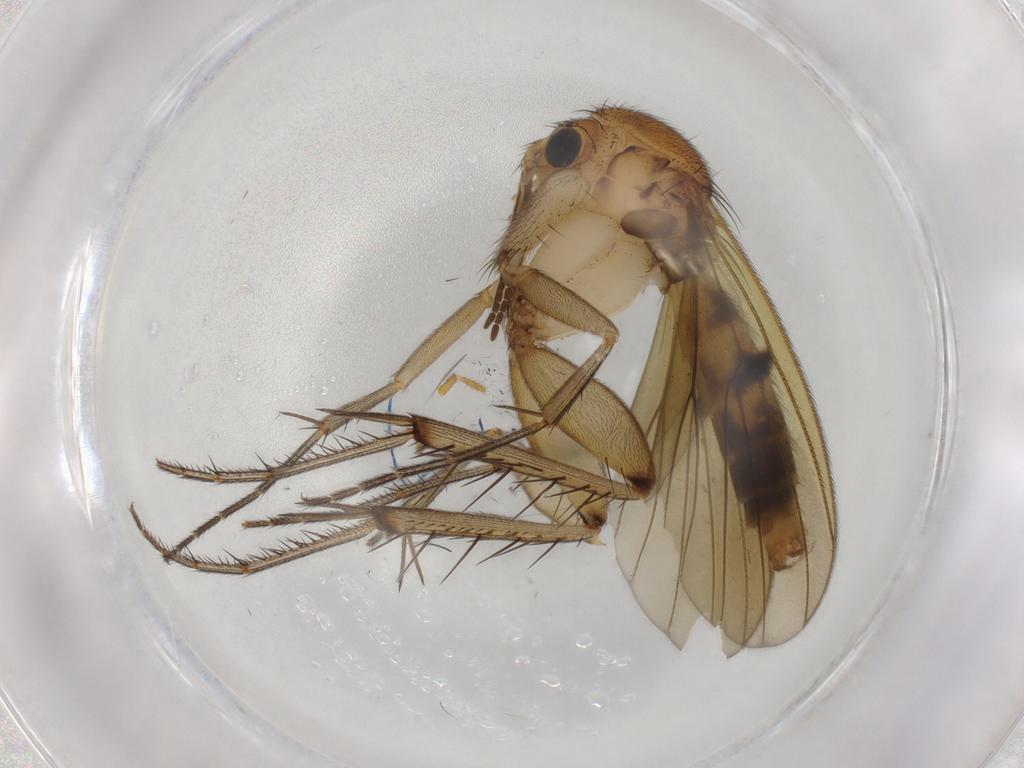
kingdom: Animalia
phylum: Arthropoda
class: Insecta
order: Diptera
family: Mycetophilidae
